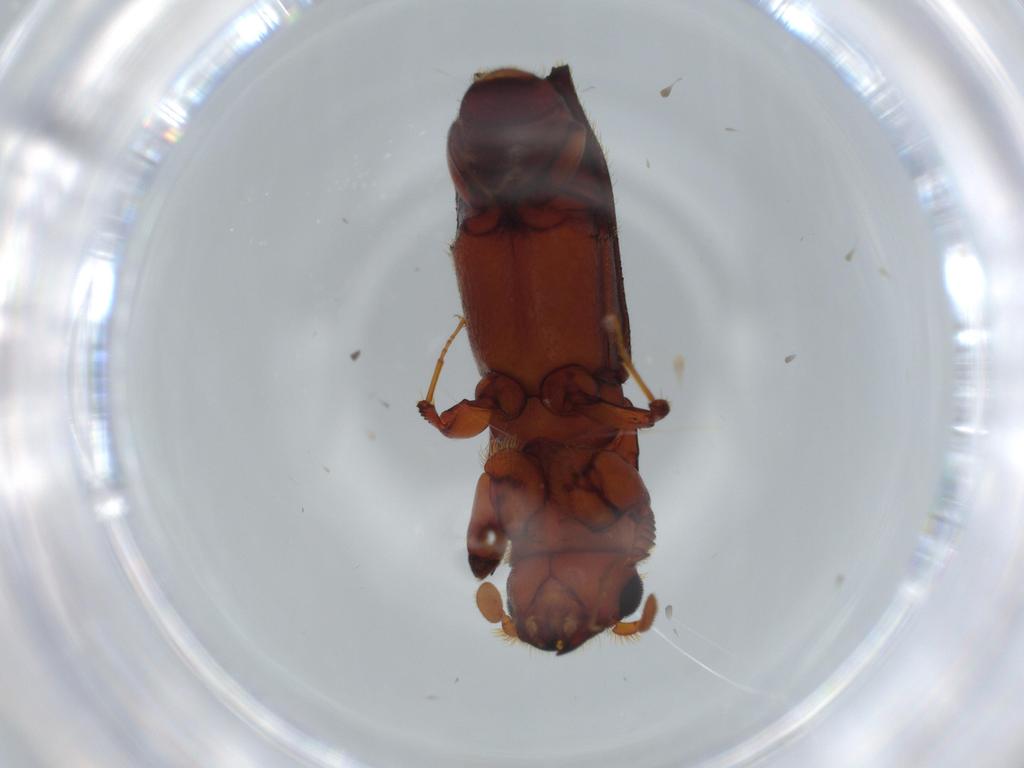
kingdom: Animalia
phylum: Arthropoda
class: Insecta
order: Coleoptera
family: Curculionidae
